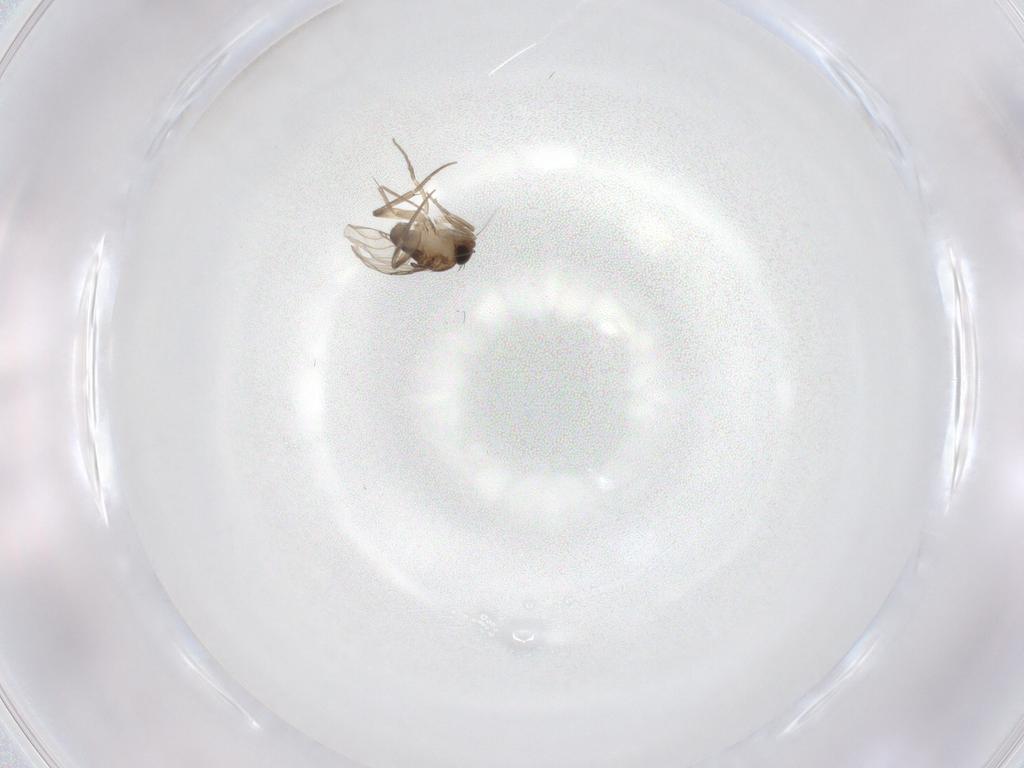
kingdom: Animalia
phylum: Arthropoda
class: Insecta
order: Diptera
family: Phoridae
